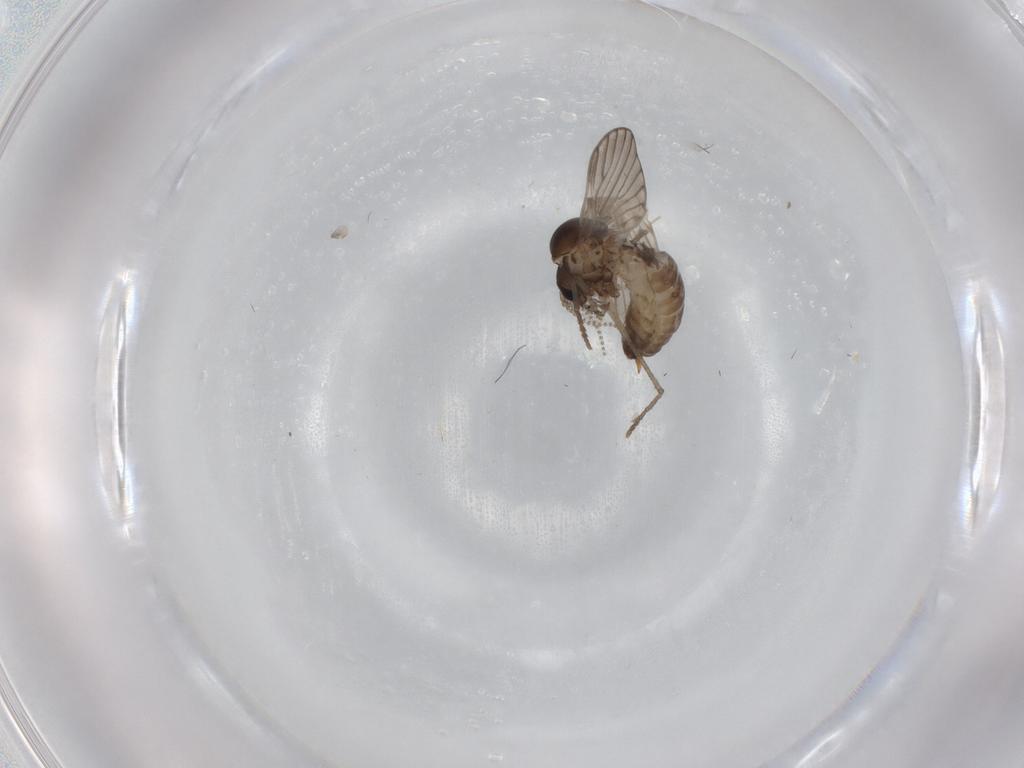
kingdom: Animalia
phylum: Arthropoda
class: Insecta
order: Diptera
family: Psychodidae
